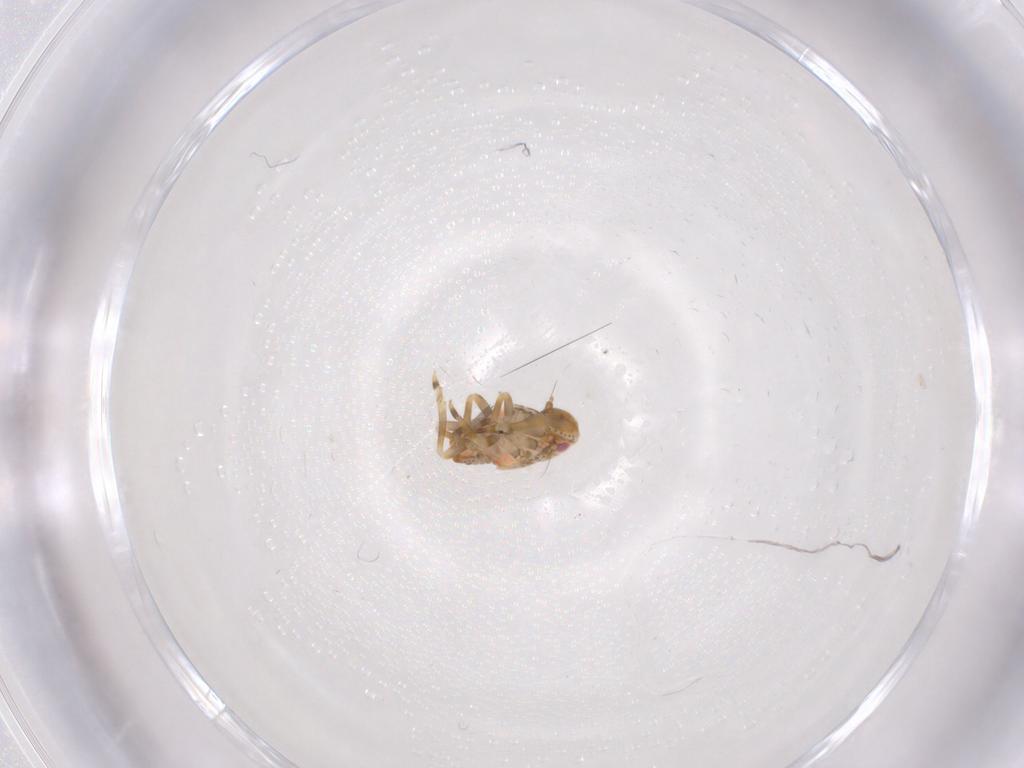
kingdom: Animalia
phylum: Arthropoda
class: Insecta
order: Hemiptera
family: Flatidae
